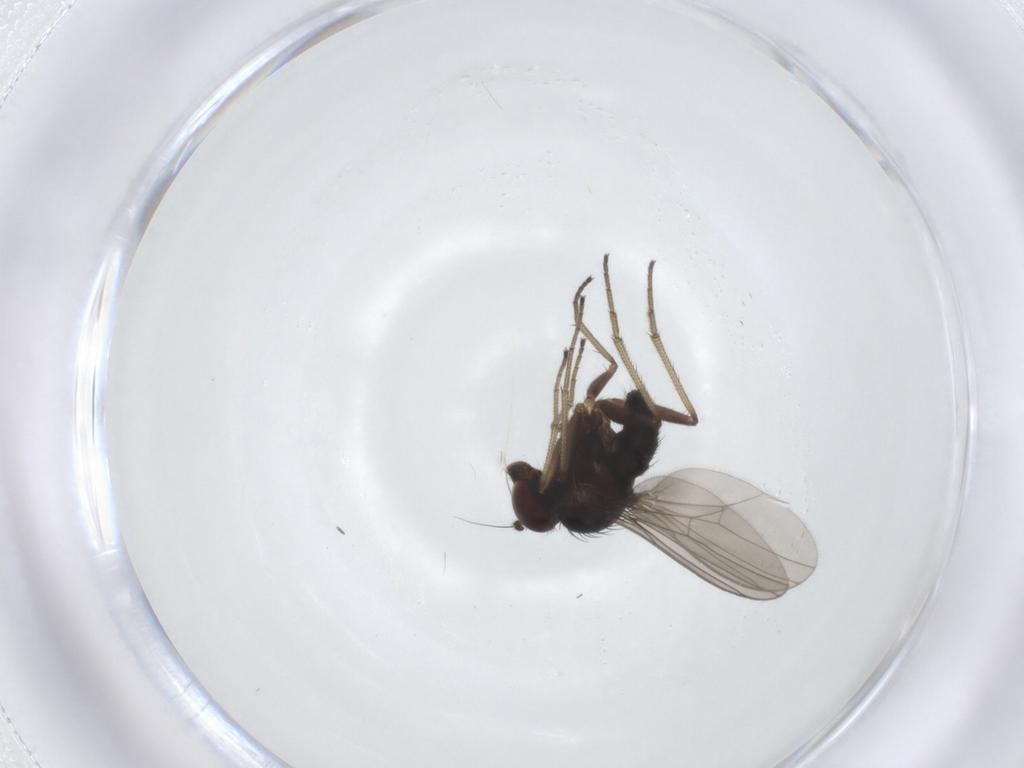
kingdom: Animalia
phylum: Arthropoda
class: Insecta
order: Diptera
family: Dolichopodidae
